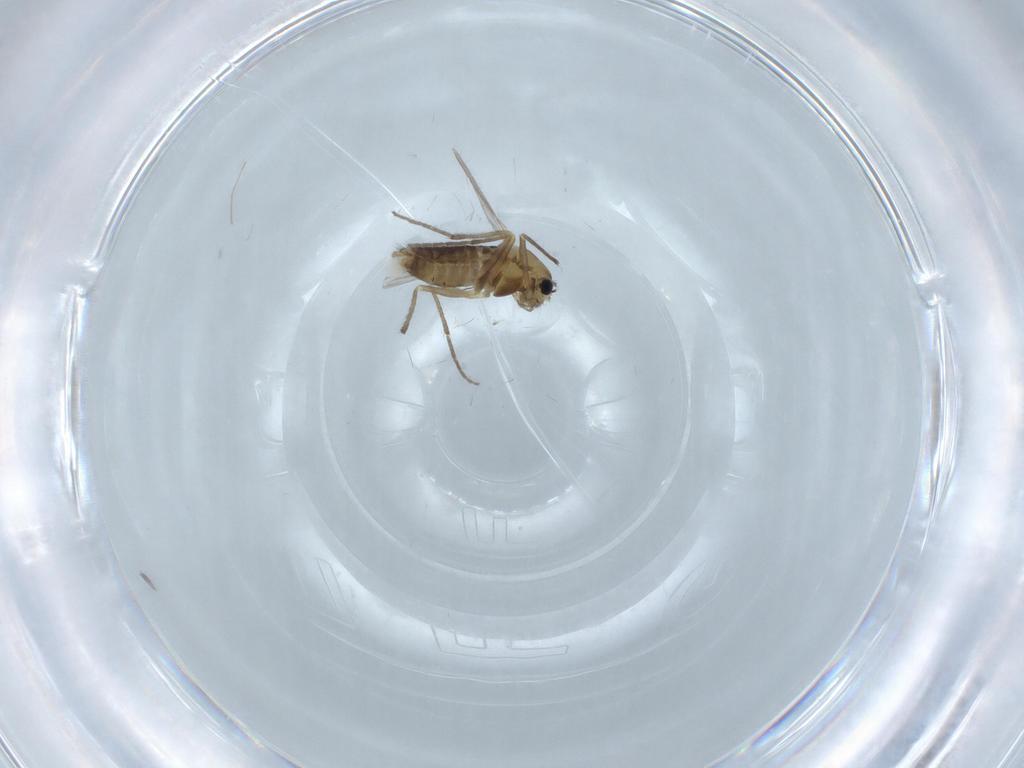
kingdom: Animalia
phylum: Arthropoda
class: Insecta
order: Diptera
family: Chironomidae
